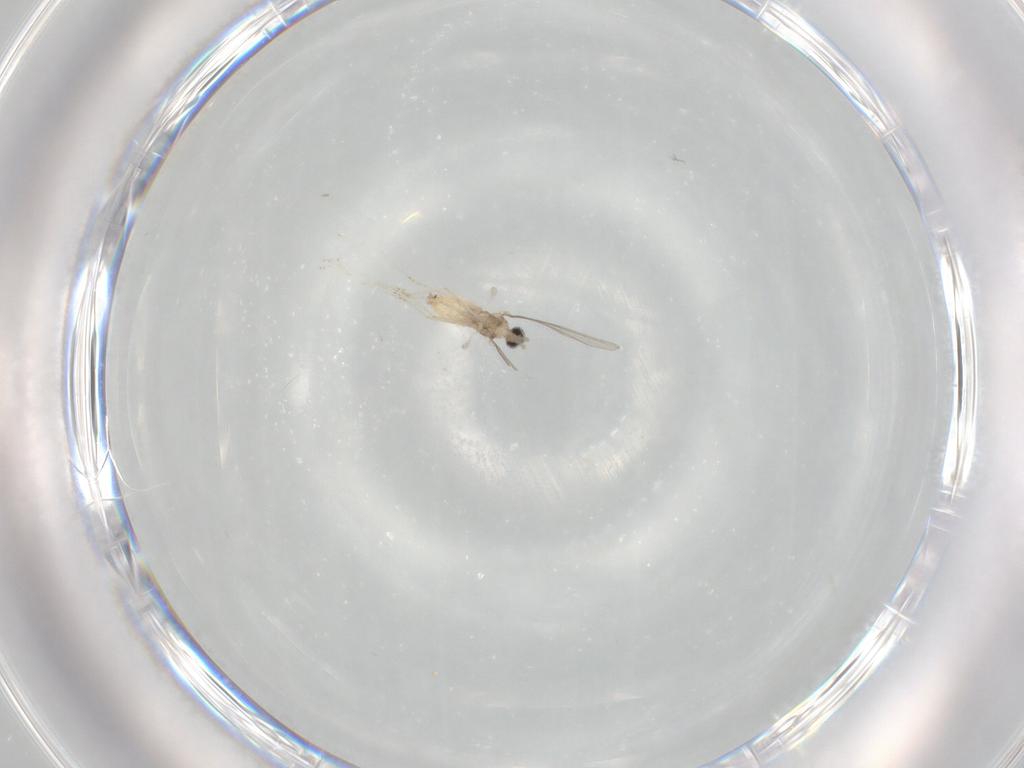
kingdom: Animalia
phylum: Arthropoda
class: Insecta
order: Diptera
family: Cecidomyiidae
